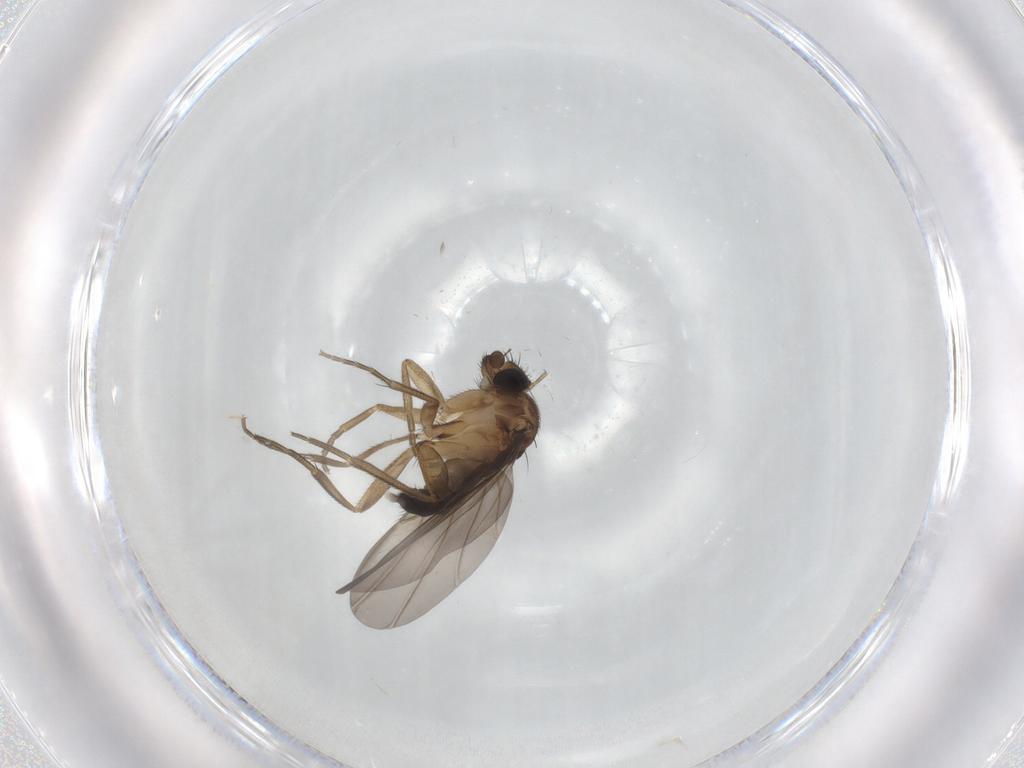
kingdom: Animalia
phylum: Arthropoda
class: Insecta
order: Diptera
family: Phoridae
